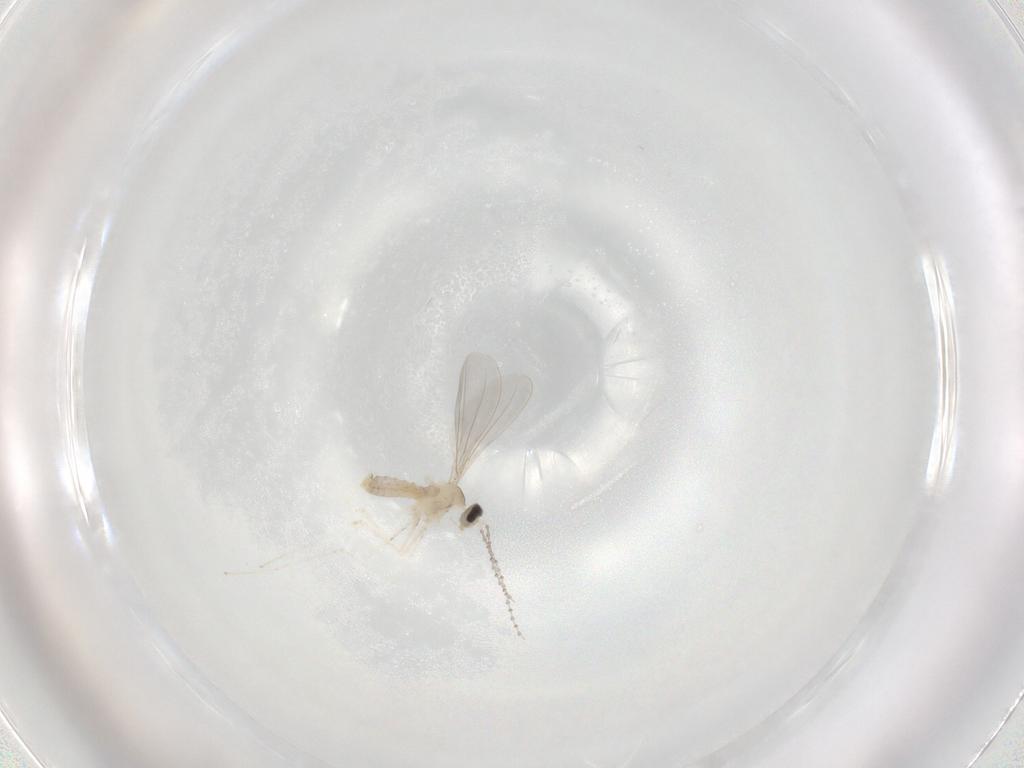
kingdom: Animalia
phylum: Arthropoda
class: Insecta
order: Diptera
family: Cecidomyiidae
